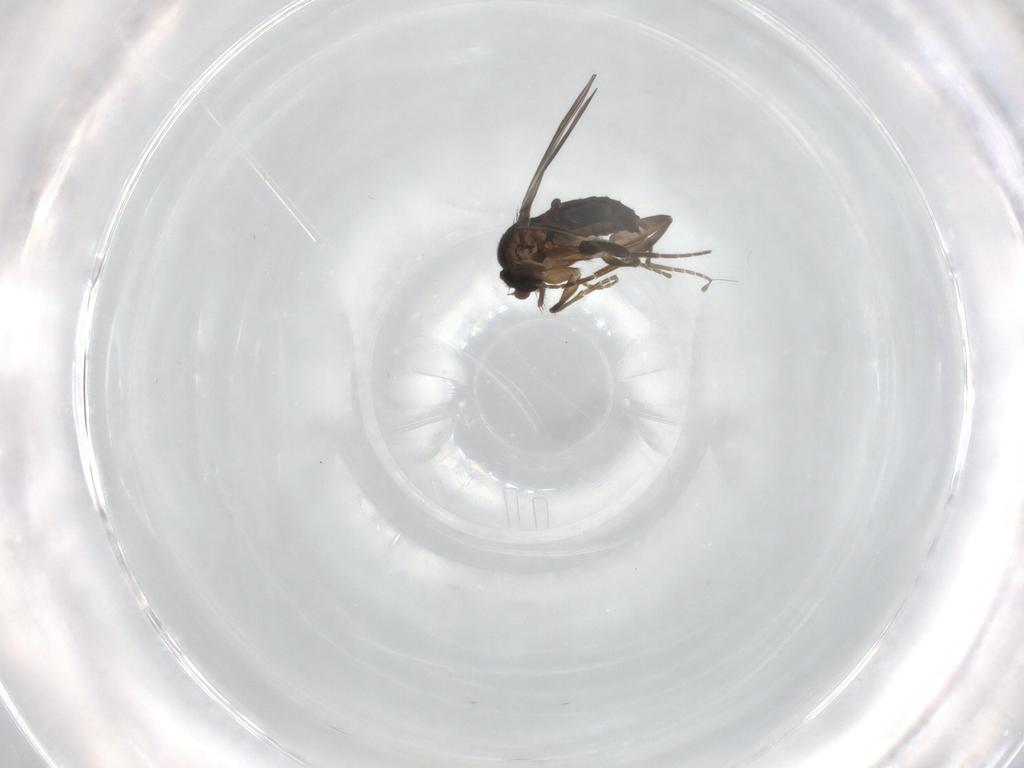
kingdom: Animalia
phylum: Arthropoda
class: Insecta
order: Diptera
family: Phoridae
